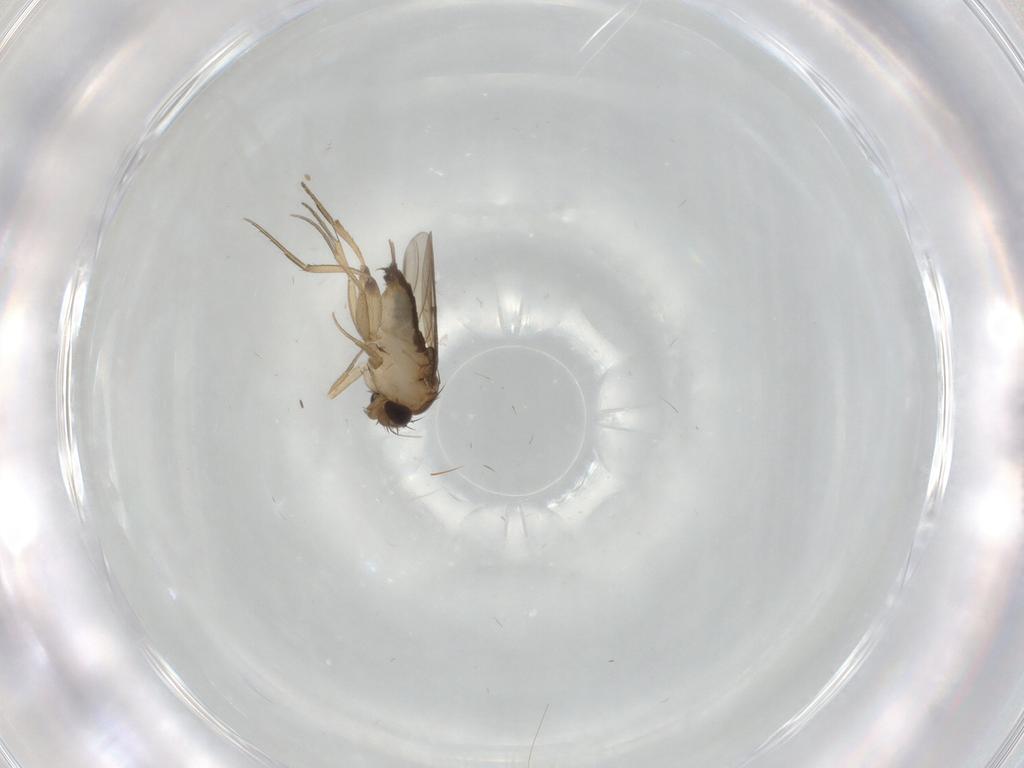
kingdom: Animalia
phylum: Arthropoda
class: Insecta
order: Diptera
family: Phoridae
